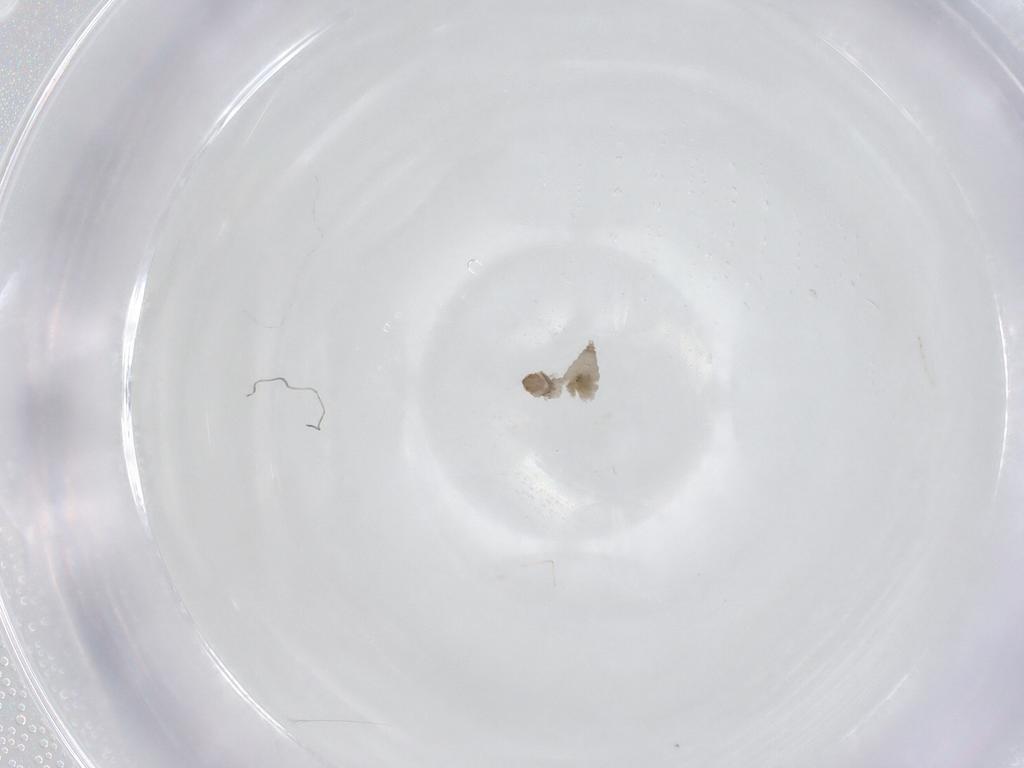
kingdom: Animalia
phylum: Arthropoda
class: Insecta
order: Diptera
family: Cecidomyiidae
